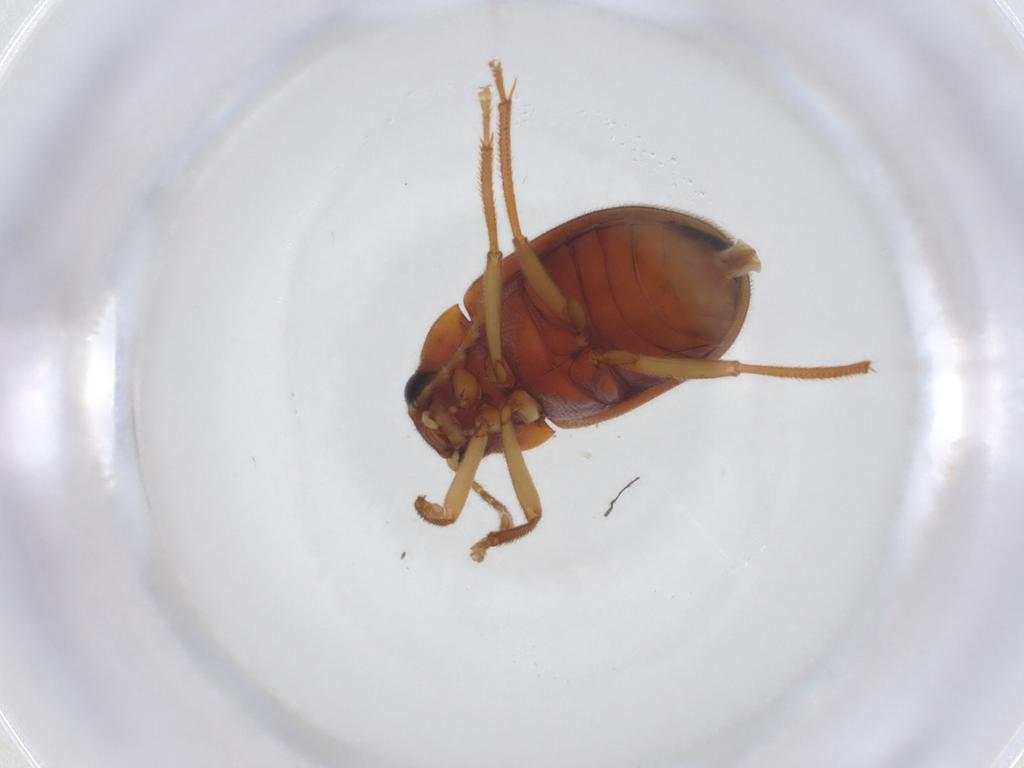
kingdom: Animalia
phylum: Arthropoda
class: Insecta
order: Coleoptera
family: Ptilodactylidae
